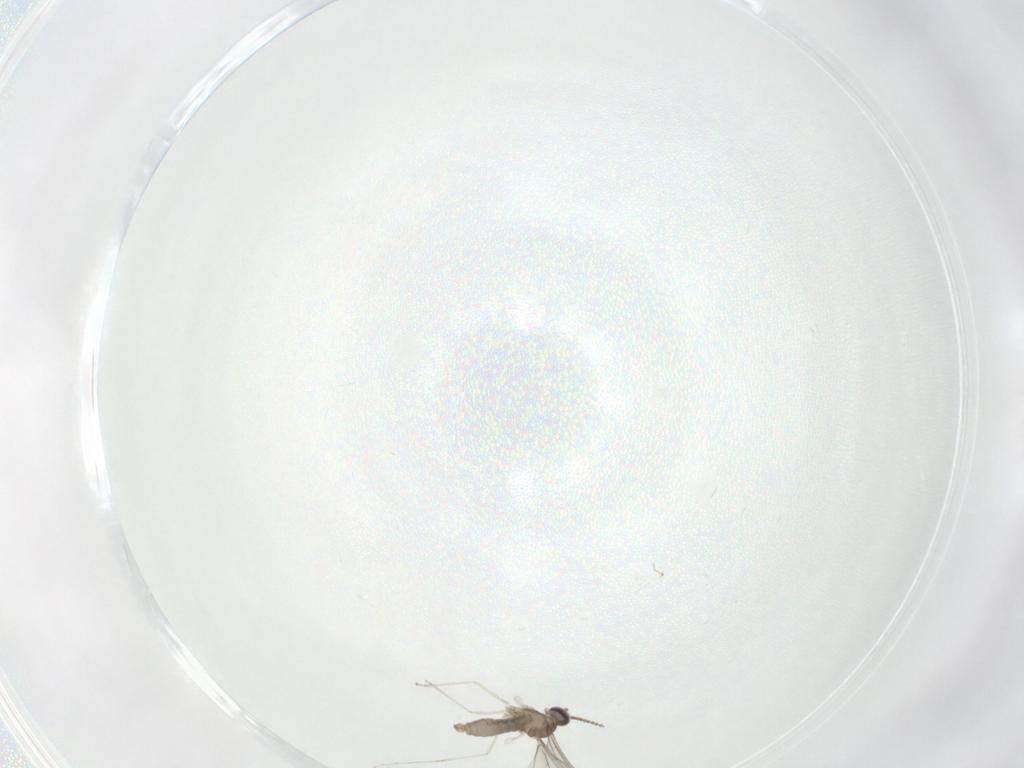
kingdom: Animalia
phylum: Arthropoda
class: Insecta
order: Diptera
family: Cecidomyiidae
